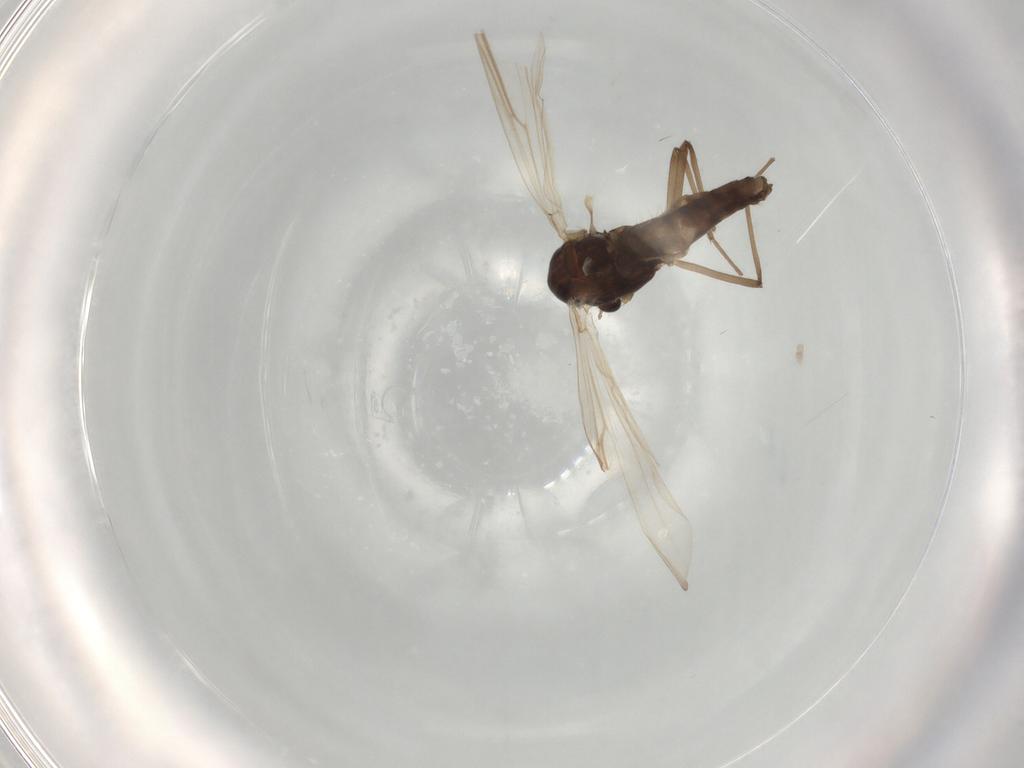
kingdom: Animalia
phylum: Arthropoda
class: Insecta
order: Diptera
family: Chironomidae
